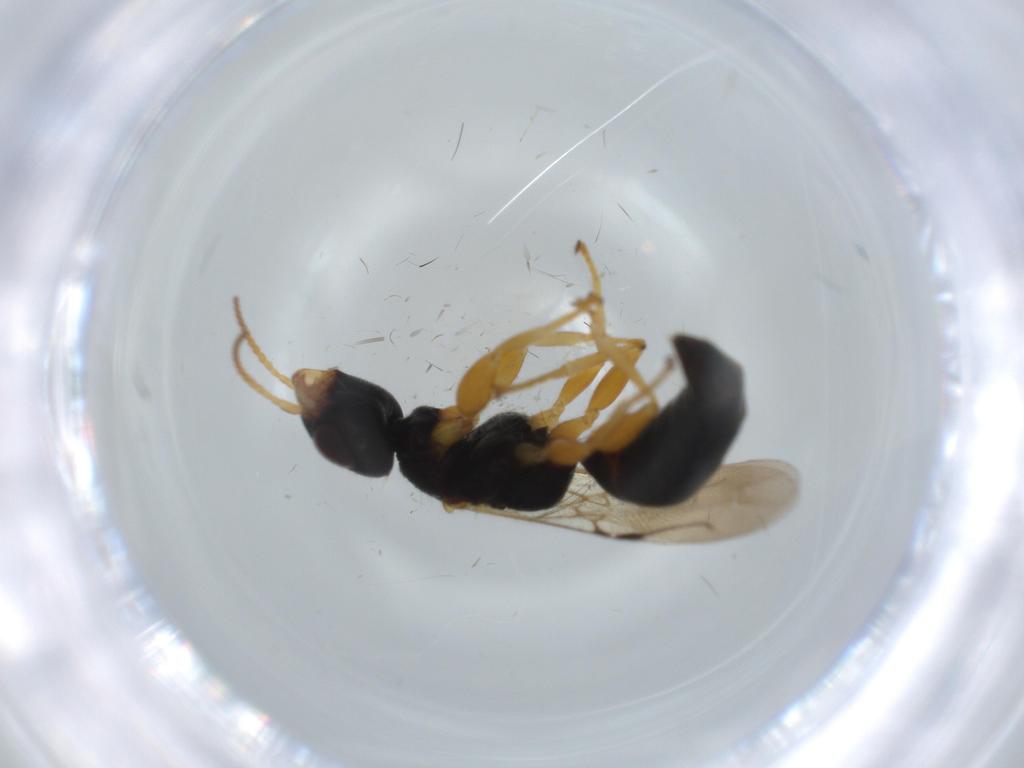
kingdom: Animalia
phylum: Arthropoda
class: Insecta
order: Hymenoptera
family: Bethylidae
